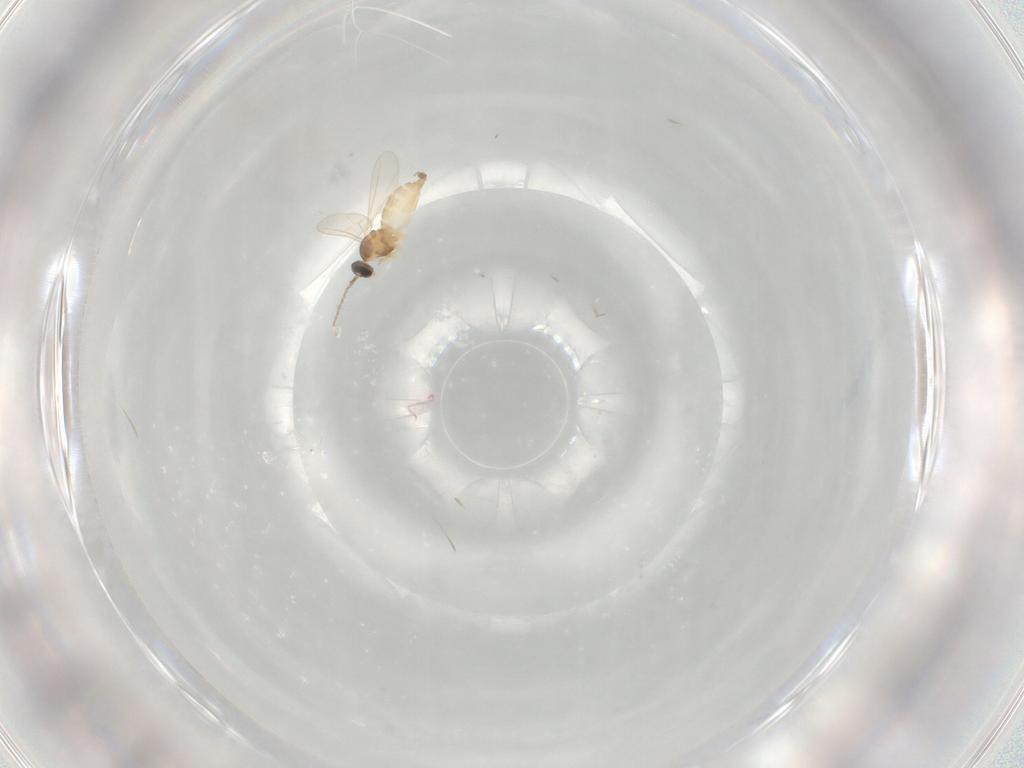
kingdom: Animalia
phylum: Arthropoda
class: Insecta
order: Diptera
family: Cecidomyiidae
